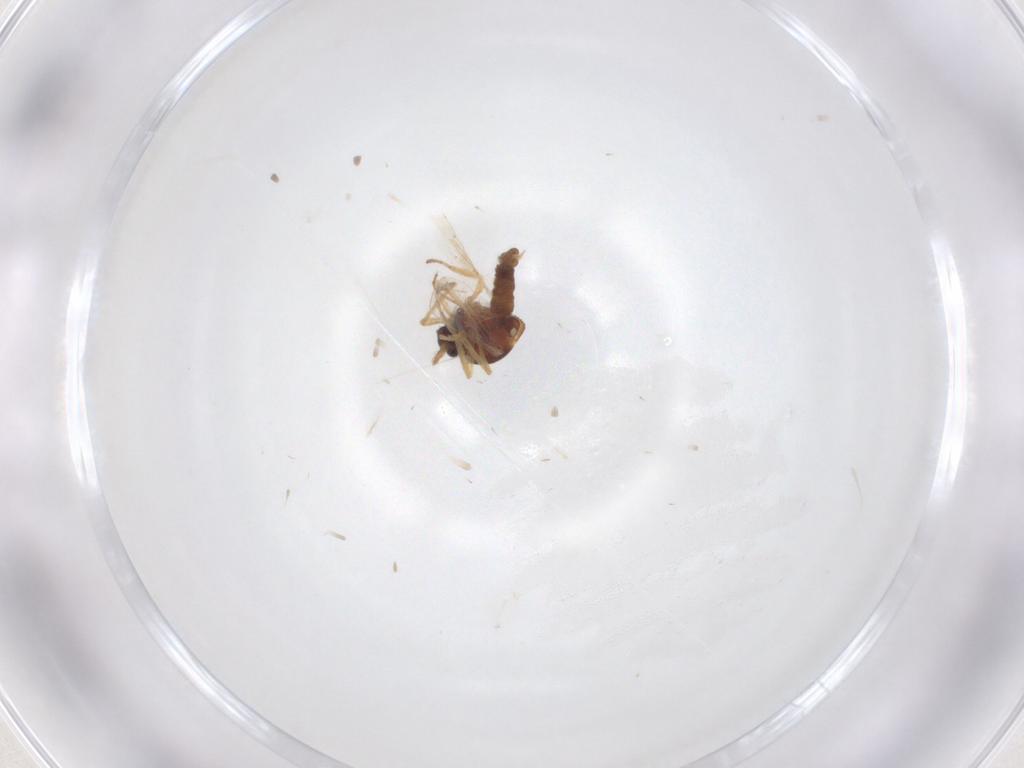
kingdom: Animalia
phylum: Arthropoda
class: Insecta
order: Diptera
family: Ceratopogonidae
